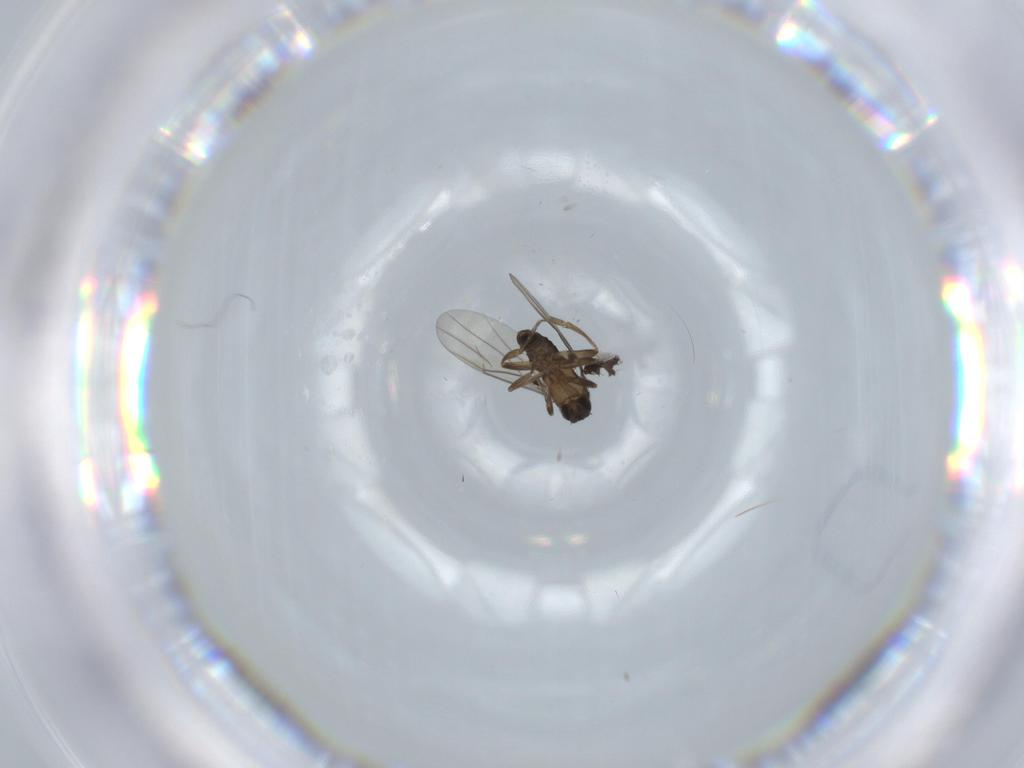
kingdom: Animalia
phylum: Arthropoda
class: Insecta
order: Diptera
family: Phoridae
